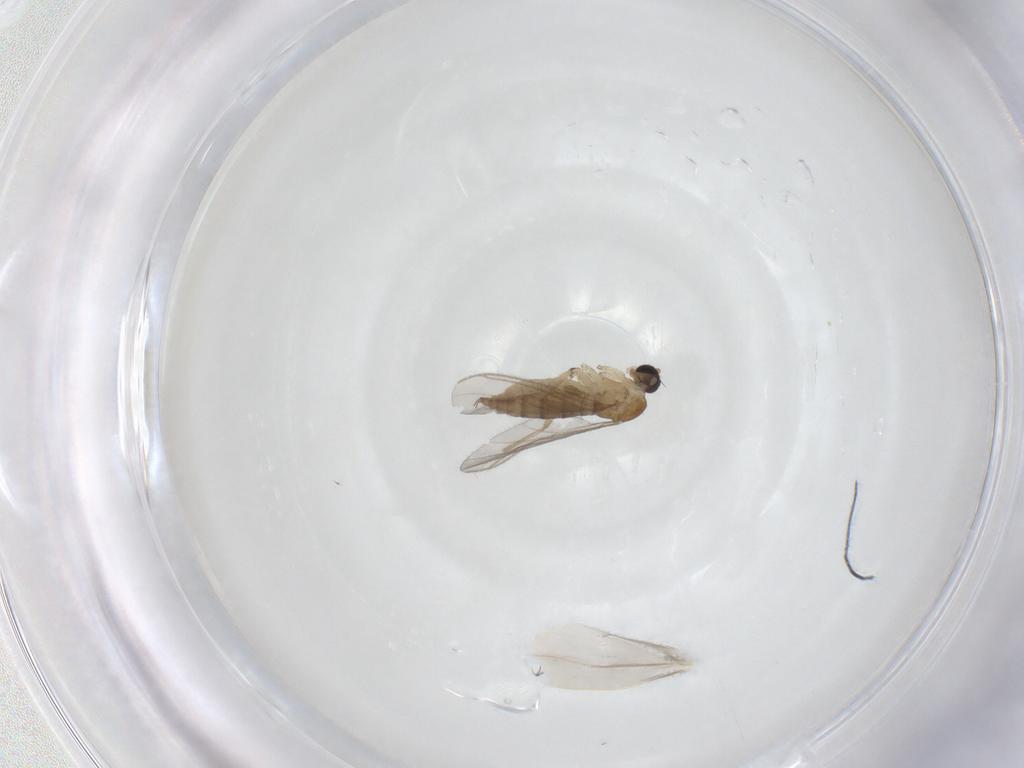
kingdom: Animalia
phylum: Arthropoda
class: Insecta
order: Diptera
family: Sciaridae
